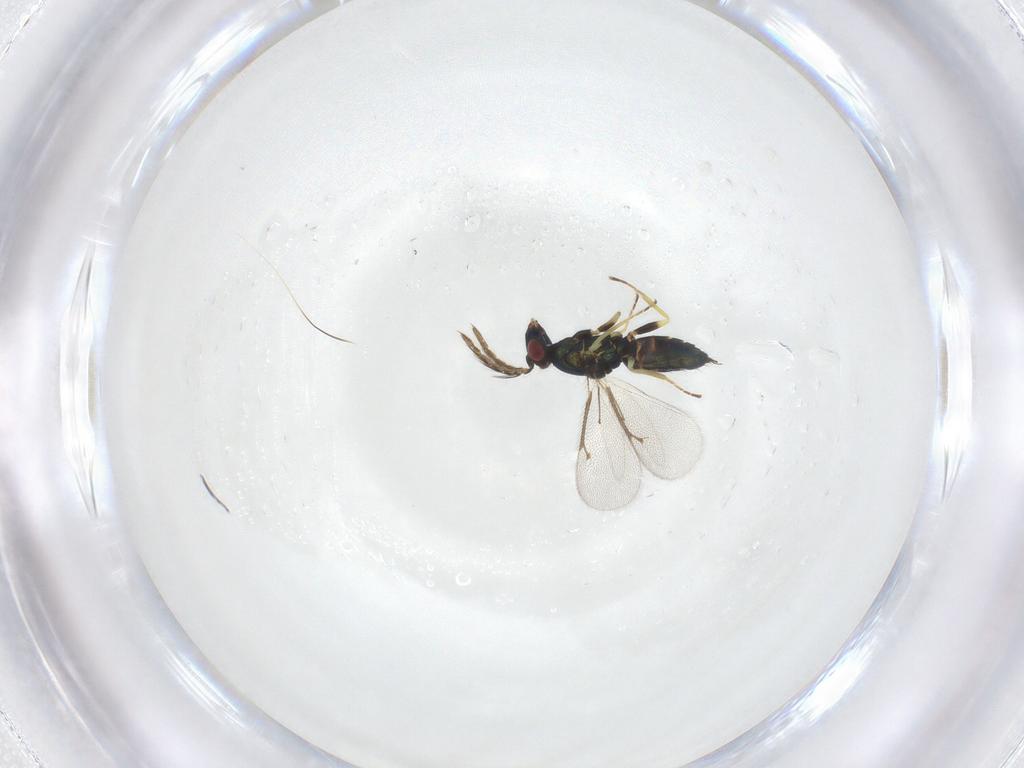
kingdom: Animalia
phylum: Arthropoda
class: Insecta
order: Hymenoptera
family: Eulophidae
